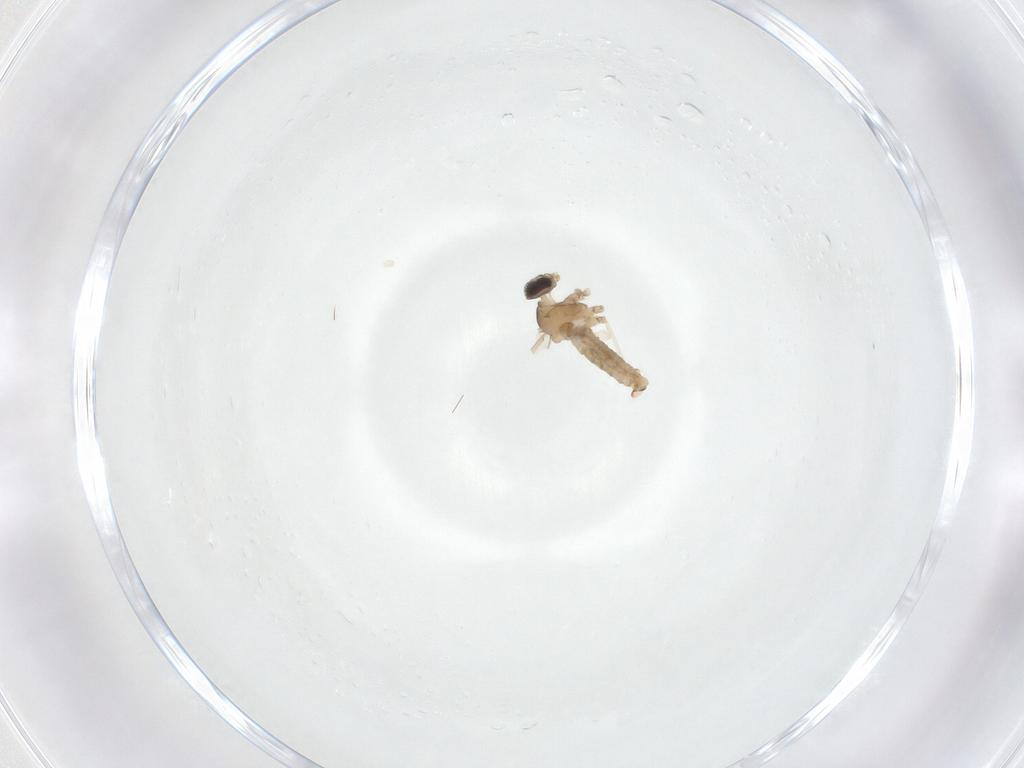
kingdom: Animalia
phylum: Arthropoda
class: Insecta
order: Diptera
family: Cecidomyiidae
